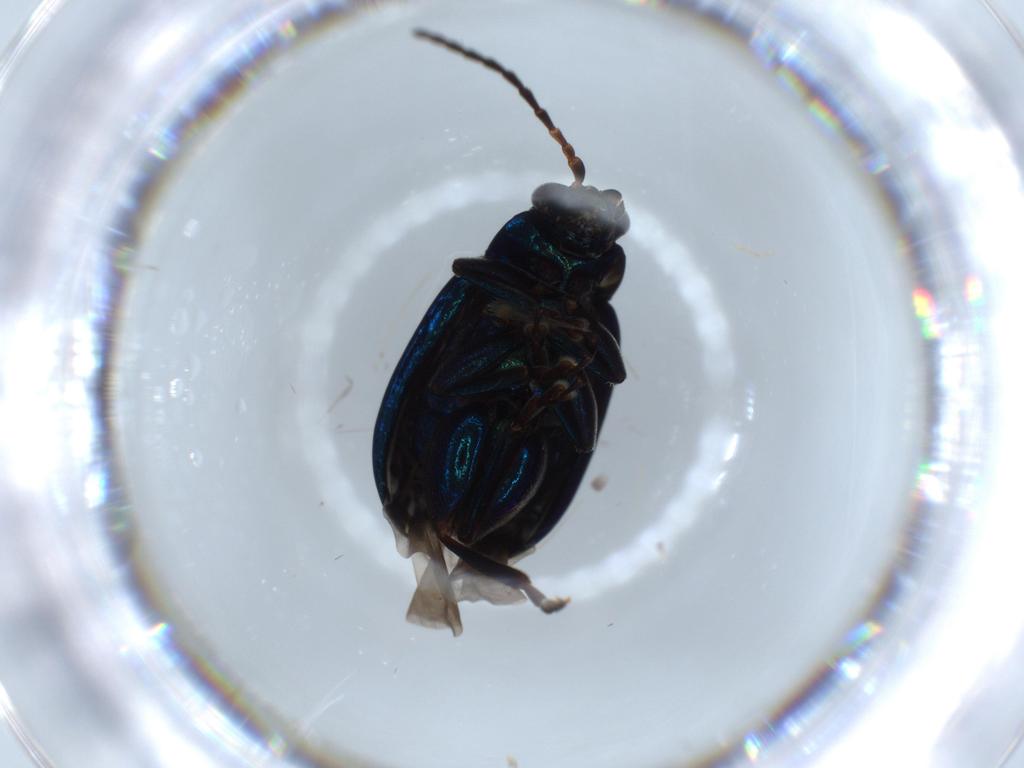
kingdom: Animalia
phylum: Arthropoda
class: Insecta
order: Coleoptera
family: Chrysomelidae
